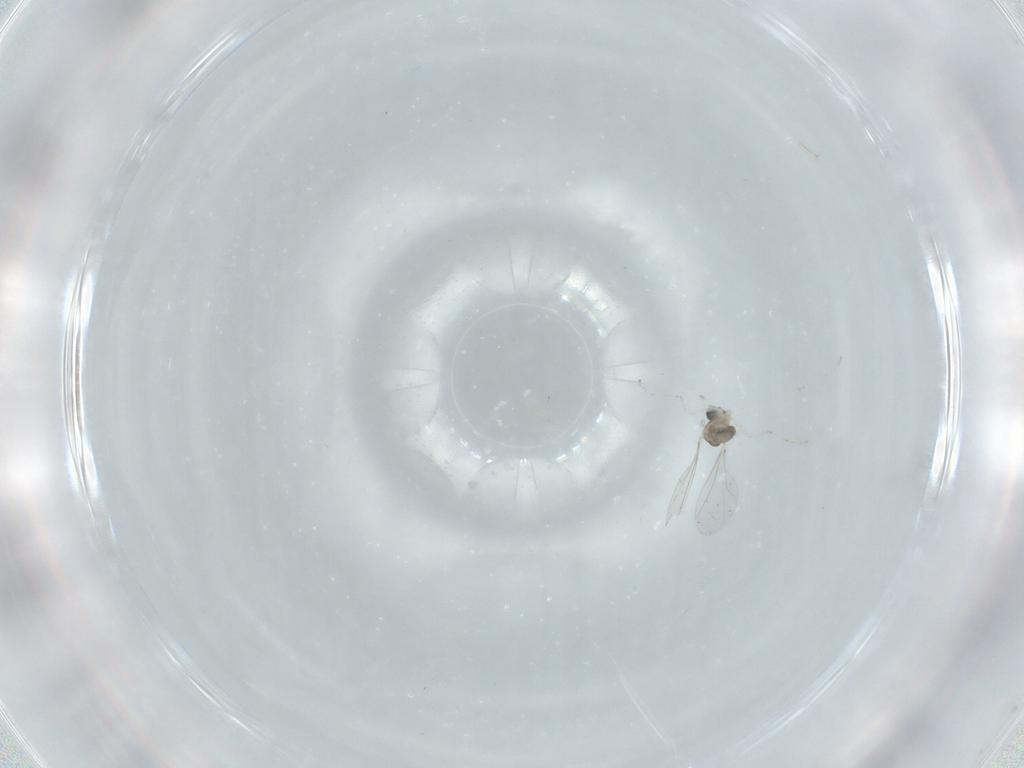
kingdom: Animalia
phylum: Arthropoda
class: Insecta
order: Diptera
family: Cecidomyiidae
